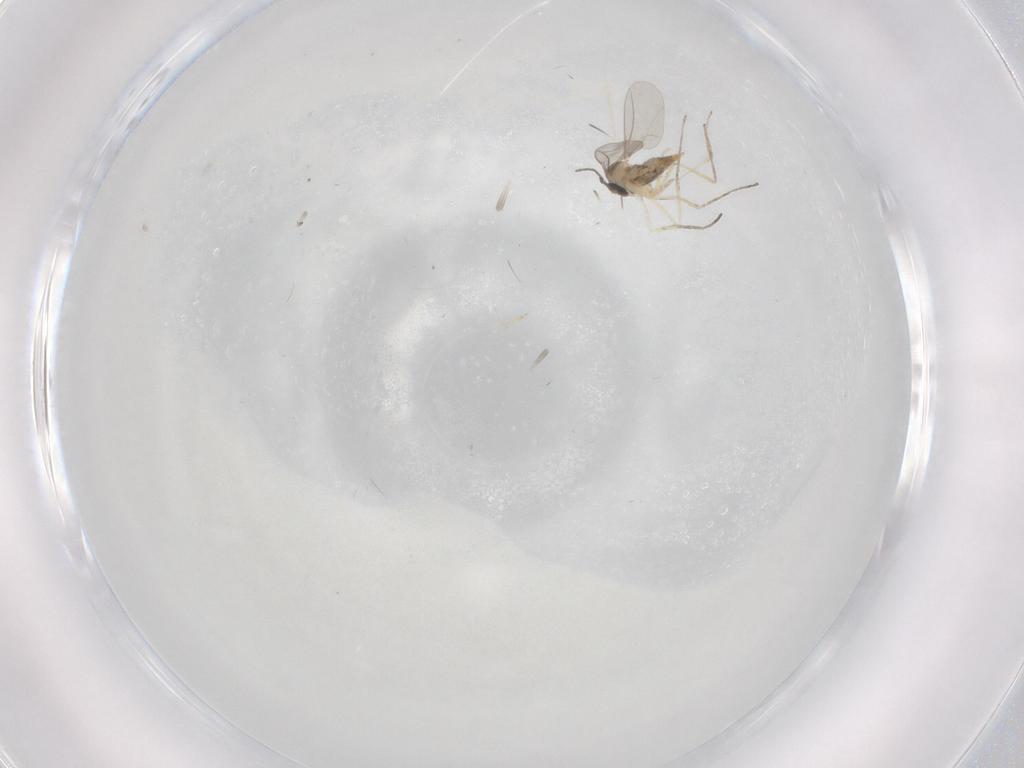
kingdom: Animalia
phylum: Arthropoda
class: Insecta
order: Diptera
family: Cecidomyiidae
